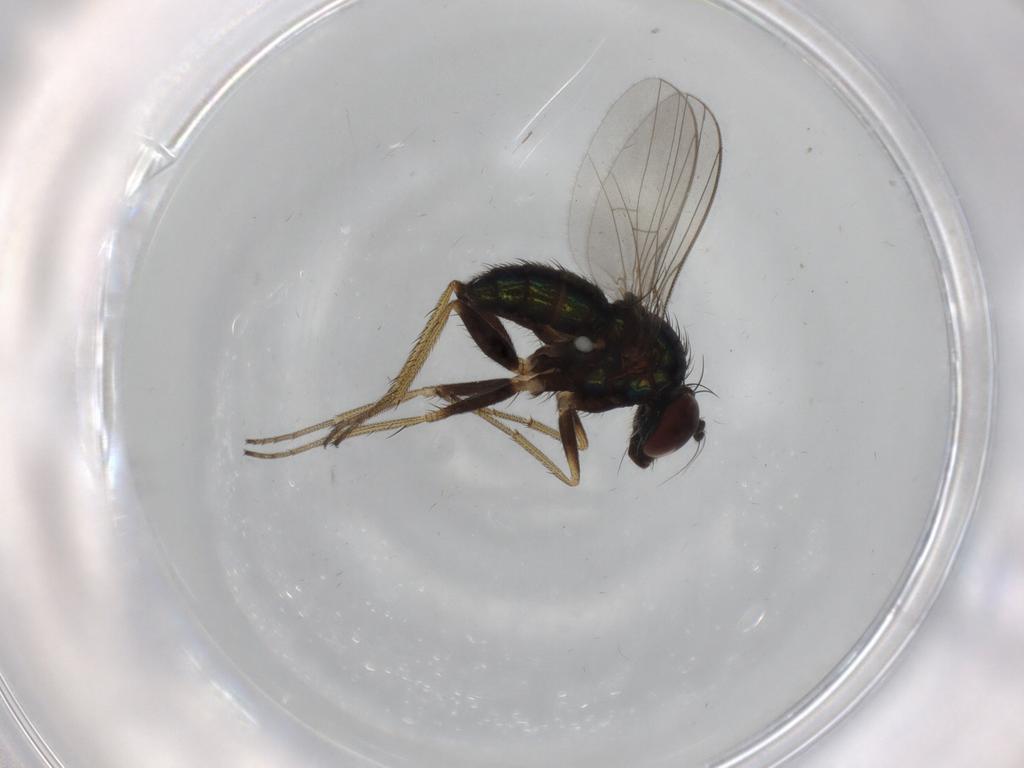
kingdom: Animalia
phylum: Arthropoda
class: Insecta
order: Diptera
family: Dolichopodidae
